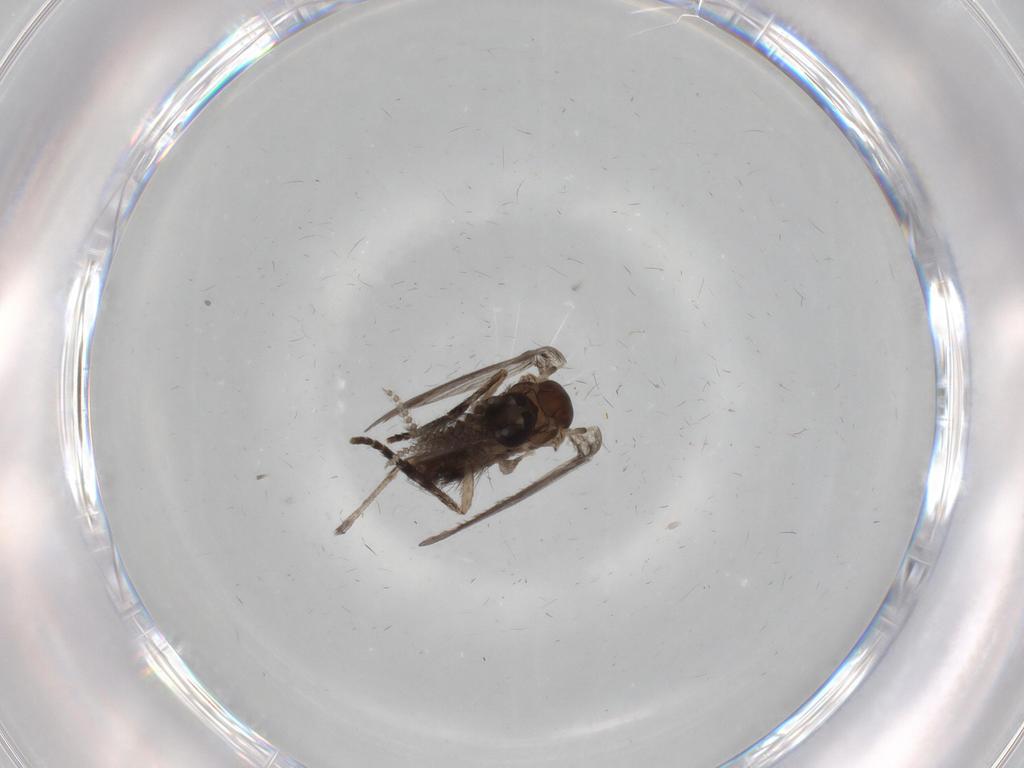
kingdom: Animalia
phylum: Arthropoda
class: Insecta
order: Diptera
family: Psychodidae
